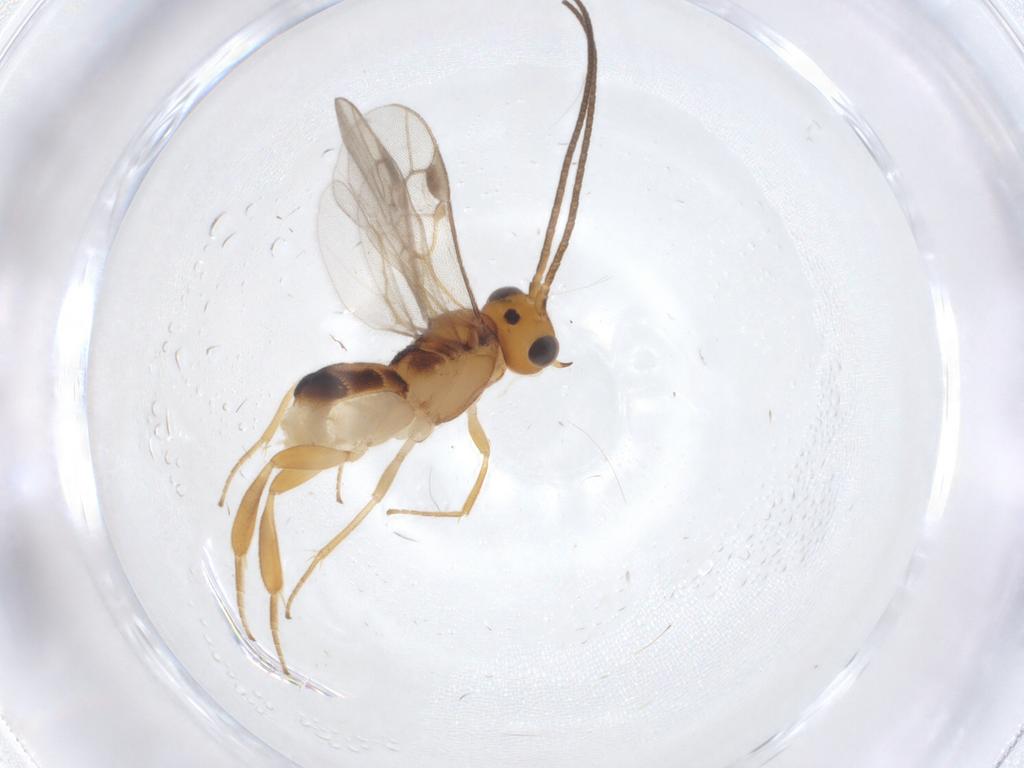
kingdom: Animalia
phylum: Arthropoda
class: Insecta
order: Hymenoptera
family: Braconidae
